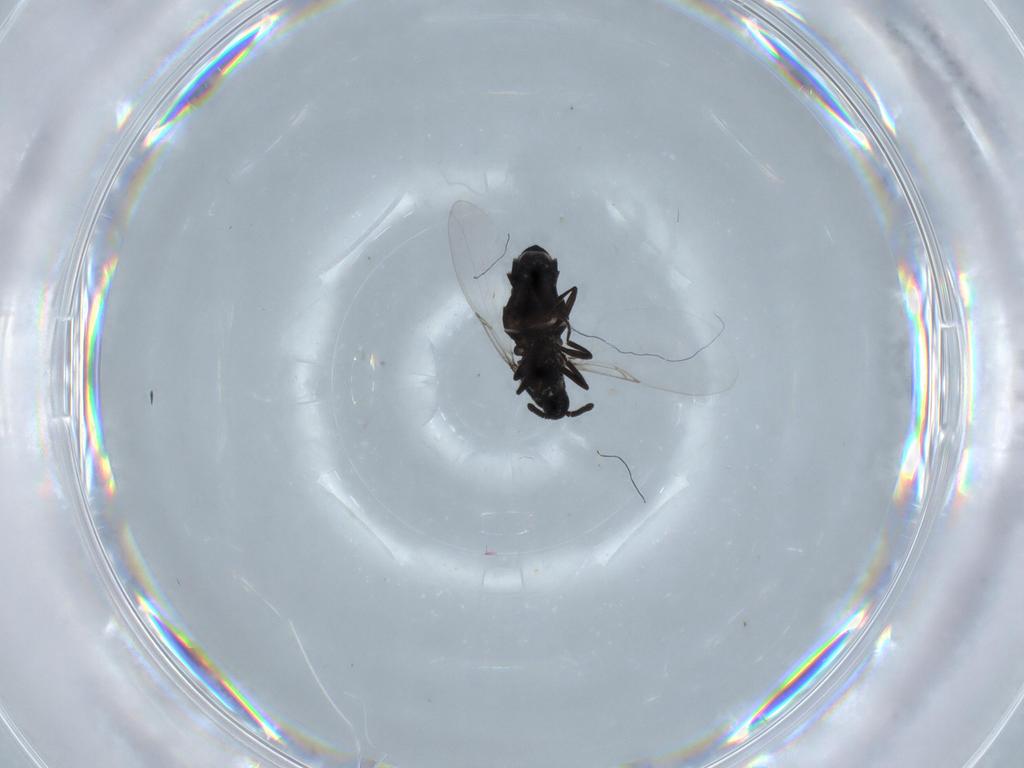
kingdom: Animalia
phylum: Arthropoda
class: Insecta
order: Diptera
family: Scatopsidae
